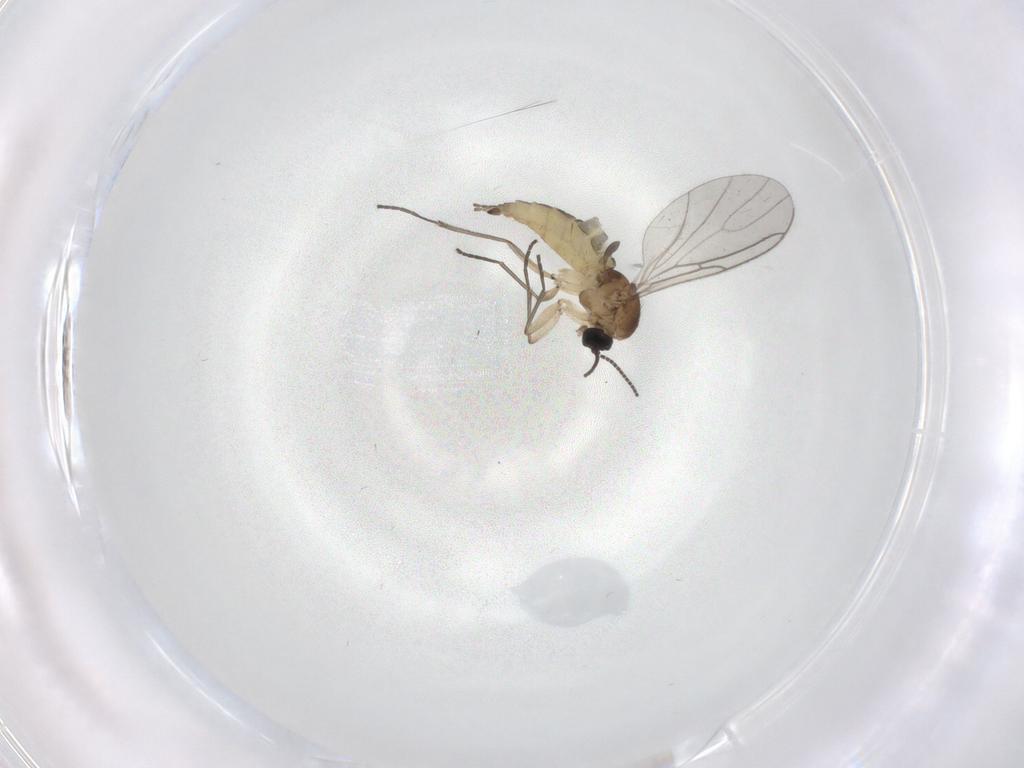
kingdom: Animalia
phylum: Arthropoda
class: Insecta
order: Diptera
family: Sciaridae
